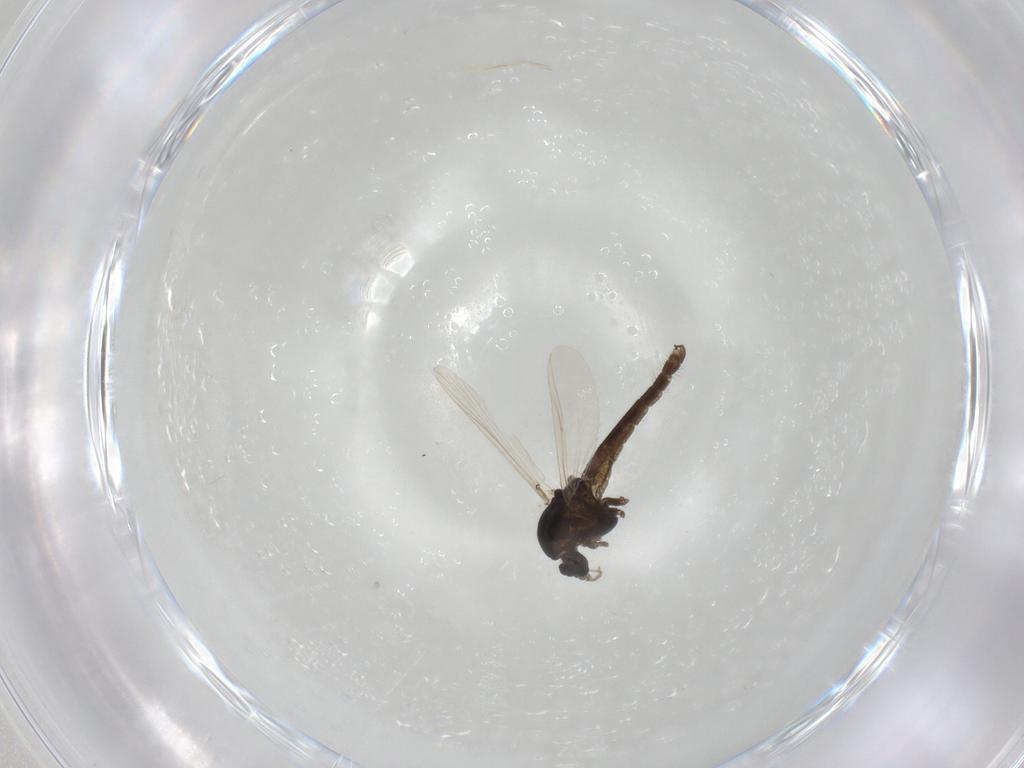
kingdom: Animalia
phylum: Arthropoda
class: Insecta
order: Diptera
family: Chironomidae
